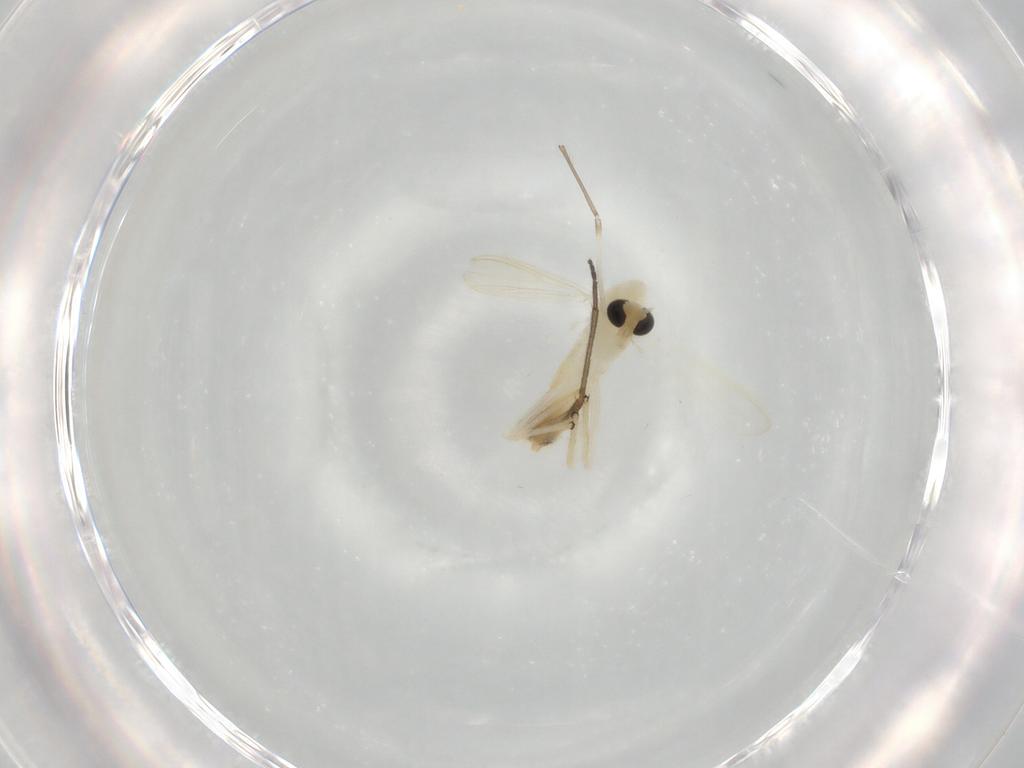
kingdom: Animalia
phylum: Arthropoda
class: Insecta
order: Diptera
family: Chironomidae
